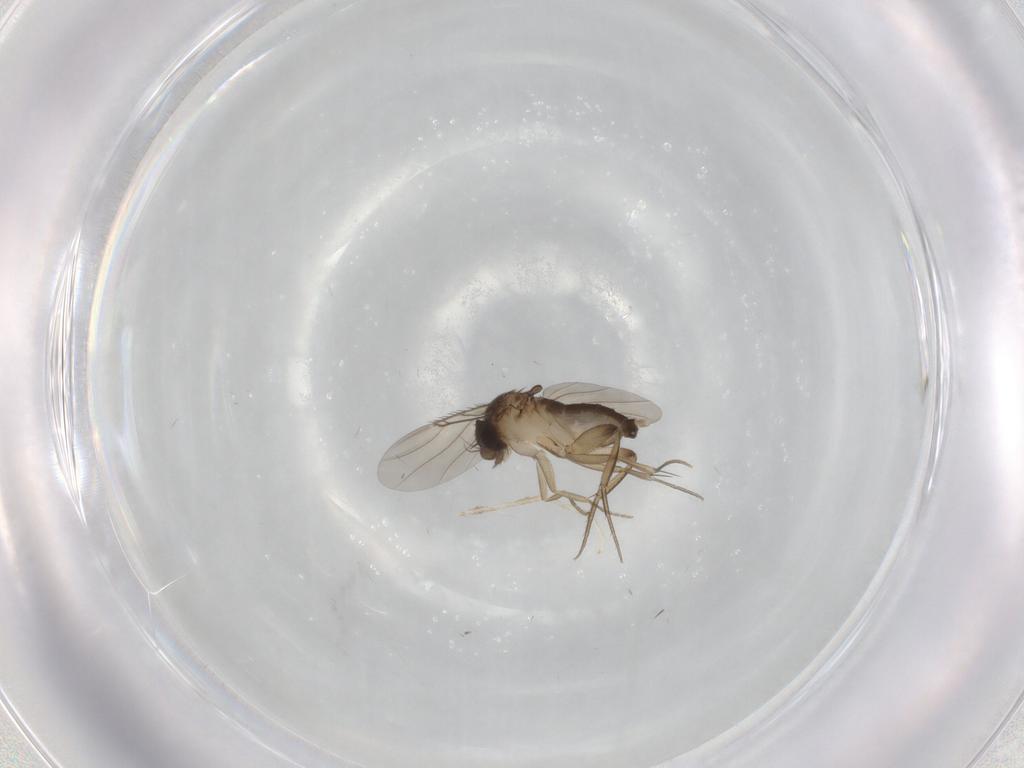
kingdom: Animalia
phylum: Arthropoda
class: Insecta
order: Diptera
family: Phoridae
